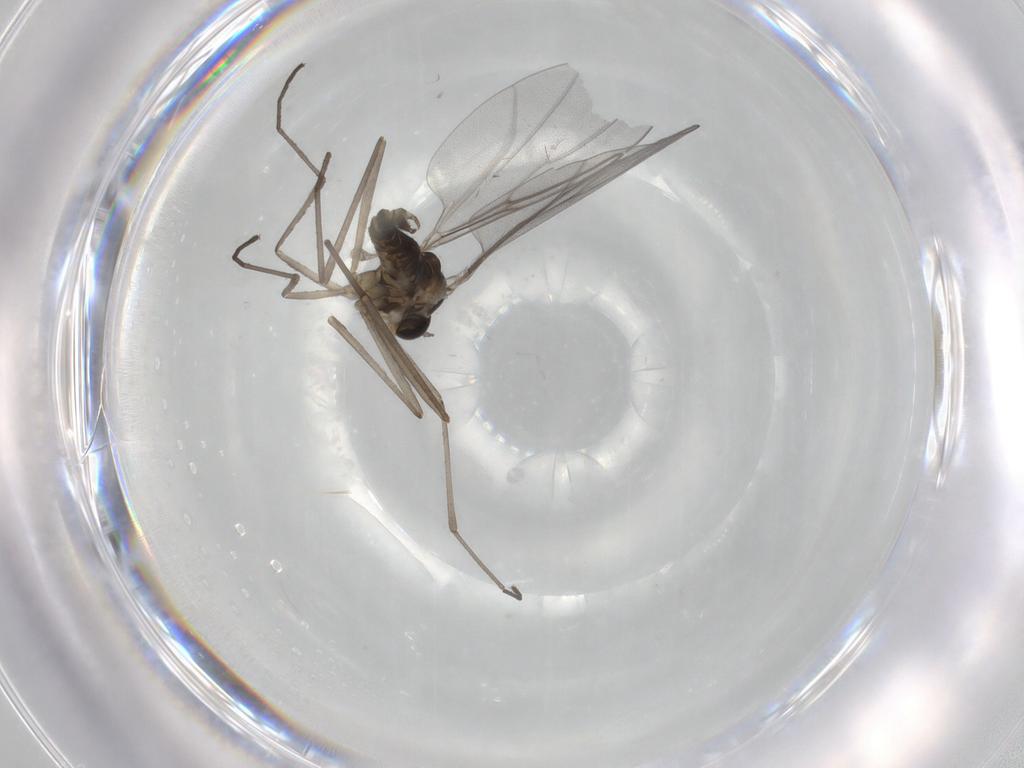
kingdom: Animalia
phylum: Arthropoda
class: Insecta
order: Diptera
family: Cecidomyiidae
